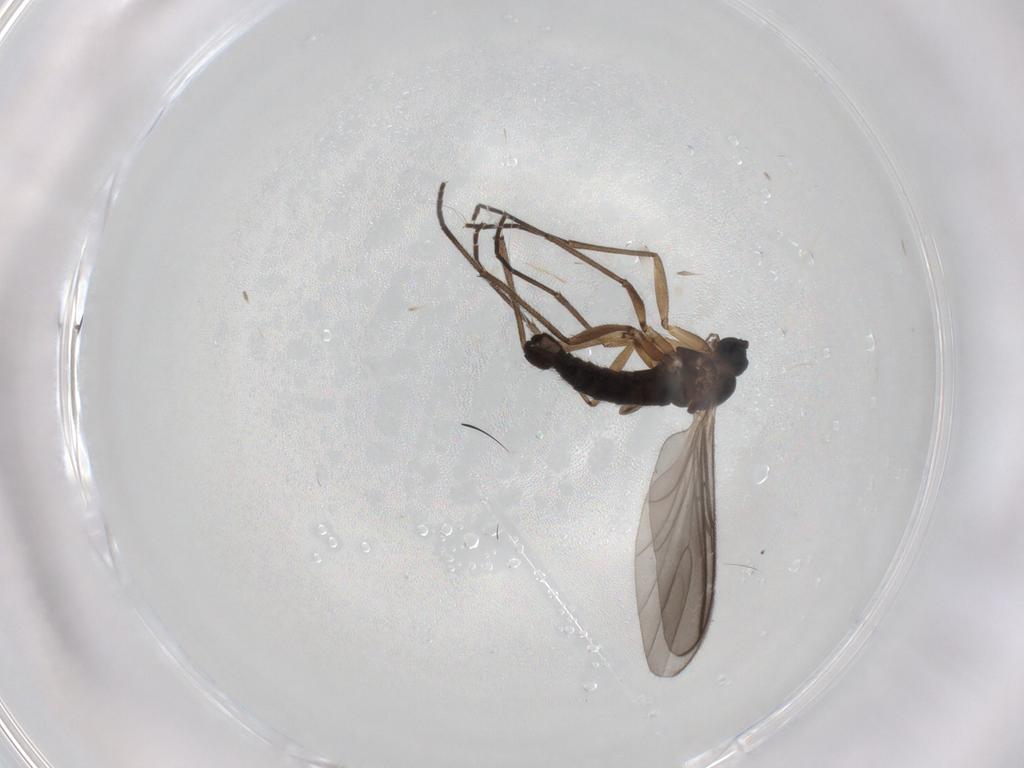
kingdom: Animalia
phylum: Arthropoda
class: Insecta
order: Diptera
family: Sciaridae
